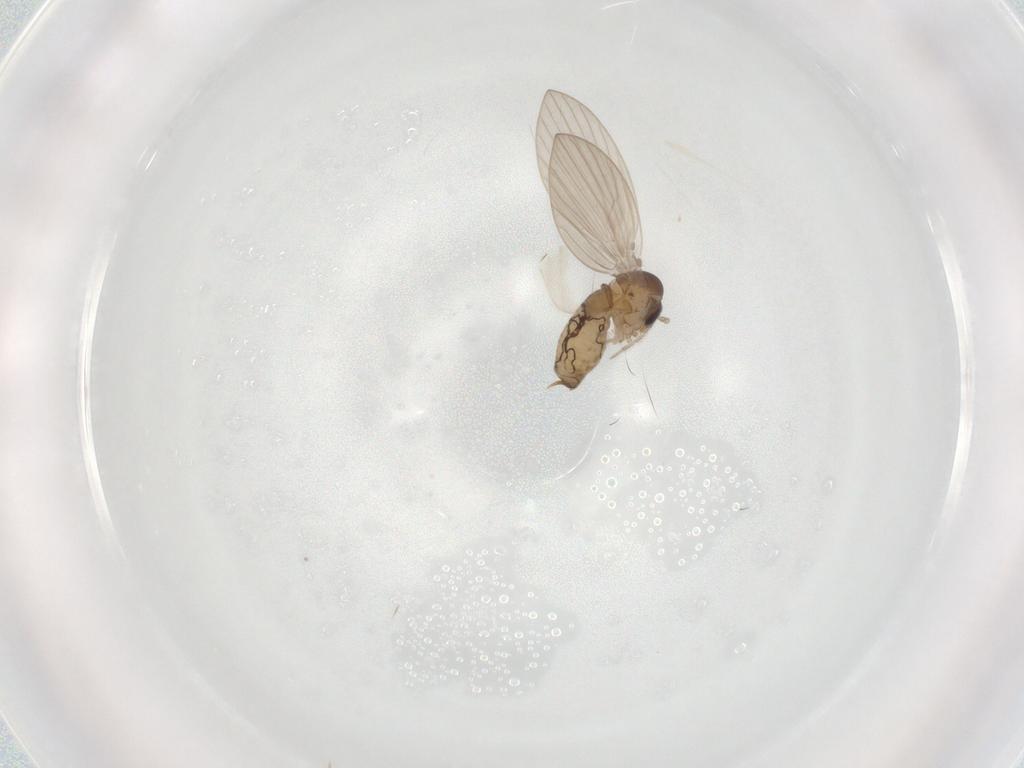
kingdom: Animalia
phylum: Arthropoda
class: Insecta
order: Diptera
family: Psychodidae
